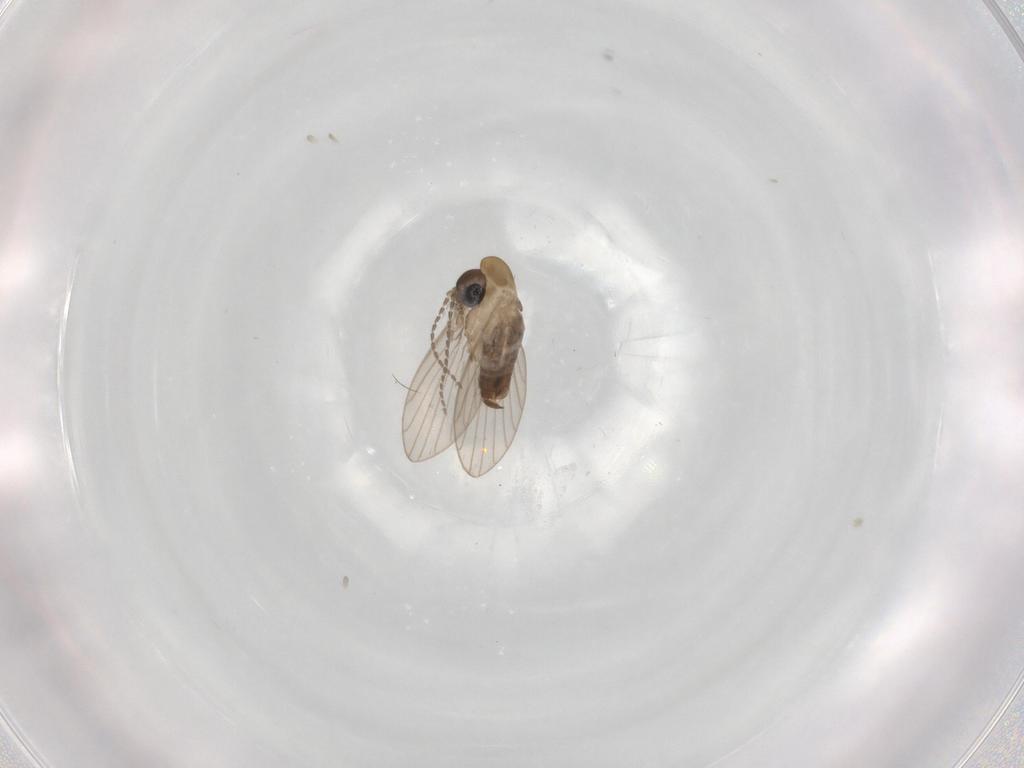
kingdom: Animalia
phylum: Arthropoda
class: Insecta
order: Diptera
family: Psychodidae
